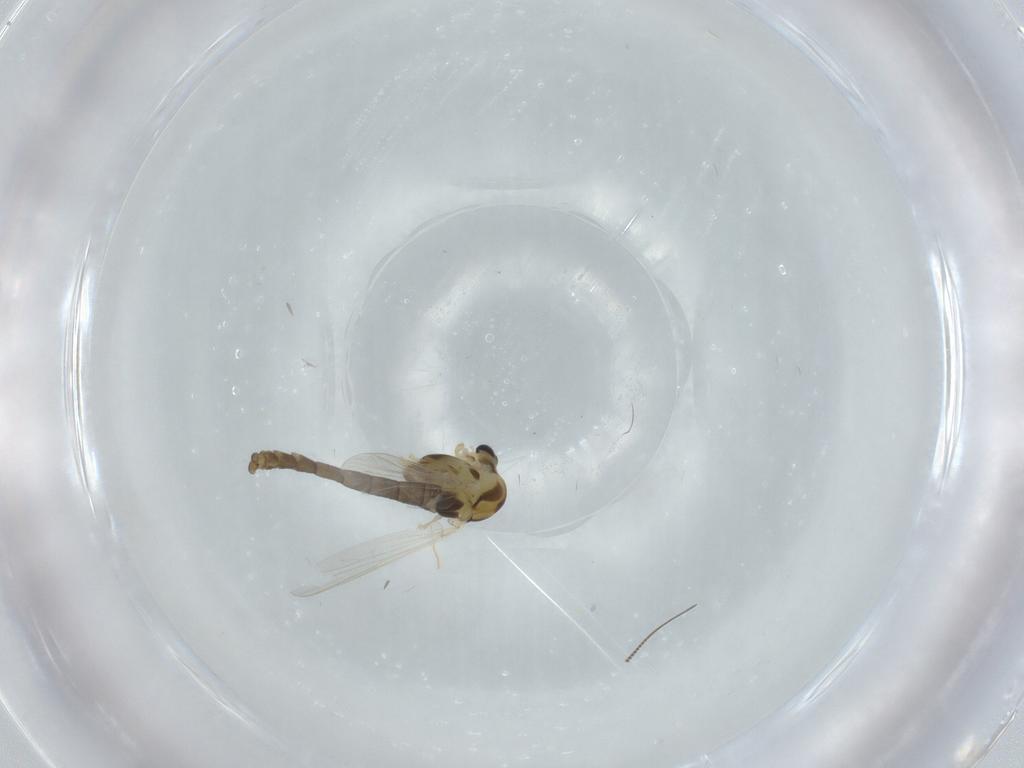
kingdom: Animalia
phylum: Arthropoda
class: Insecta
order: Diptera
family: Chironomidae
